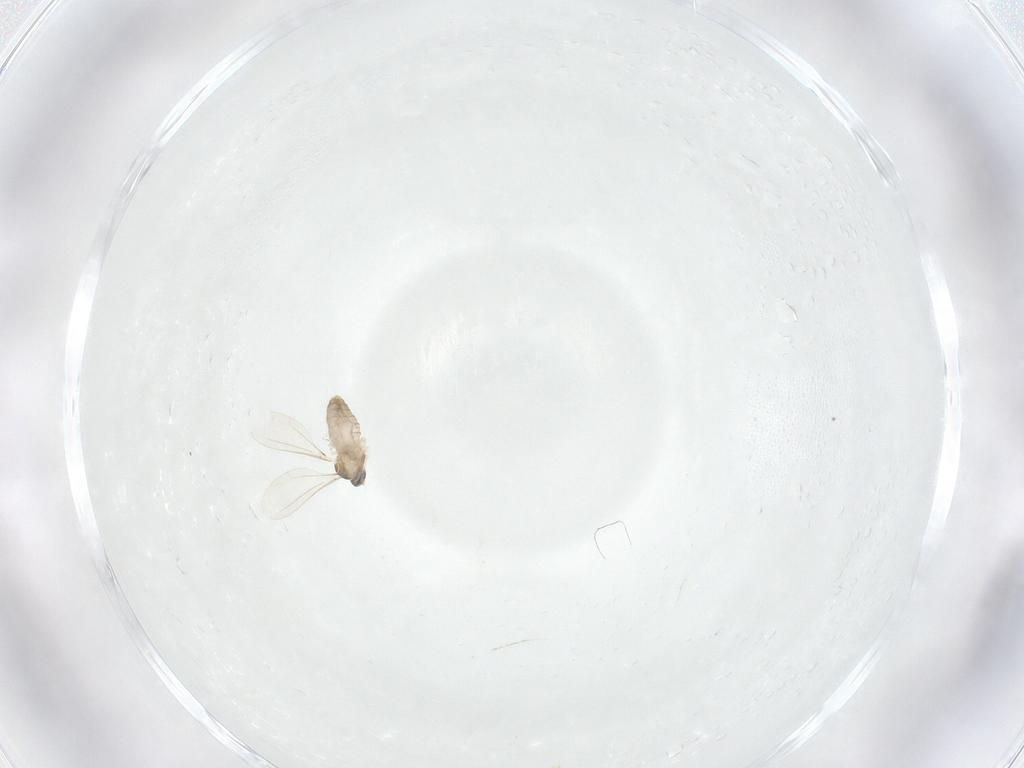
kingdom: Animalia
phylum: Arthropoda
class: Insecta
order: Diptera
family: Cecidomyiidae
